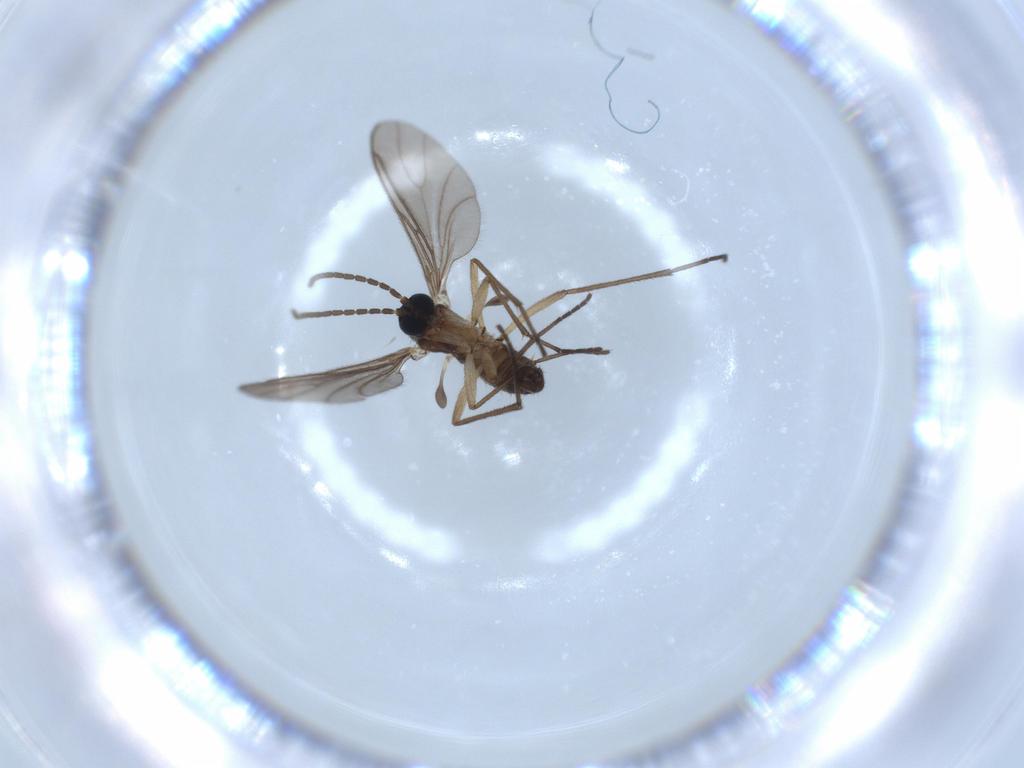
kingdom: Animalia
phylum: Arthropoda
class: Insecta
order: Diptera
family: Sciaridae
